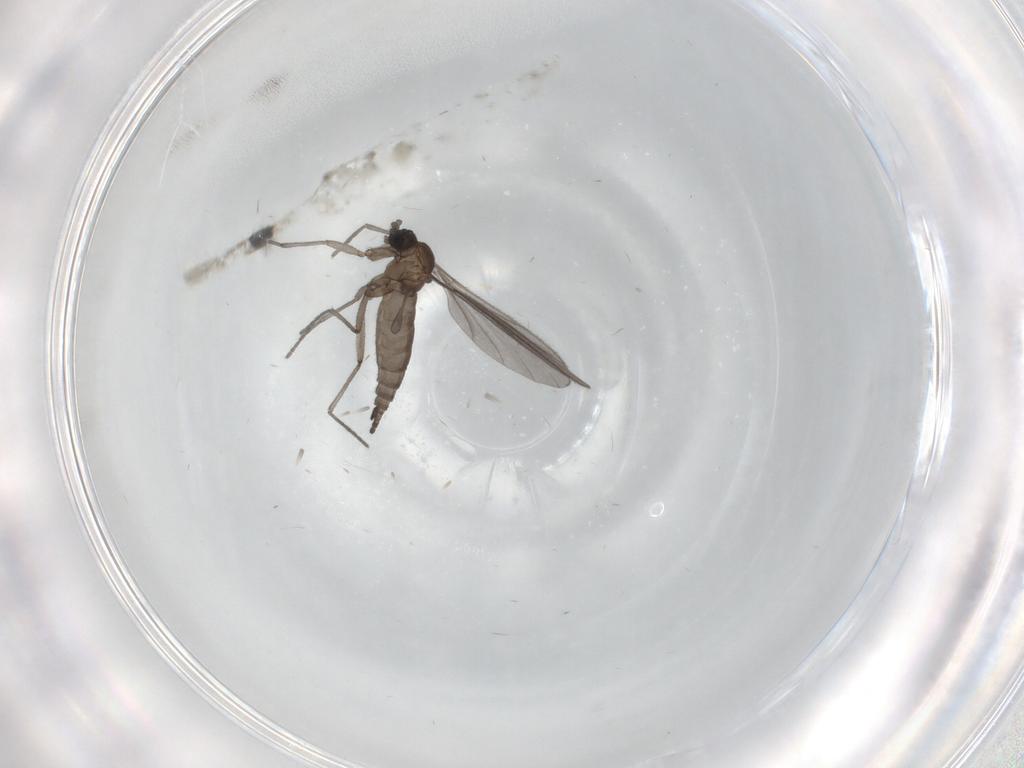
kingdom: Animalia
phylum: Arthropoda
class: Insecta
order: Diptera
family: Sciaridae
